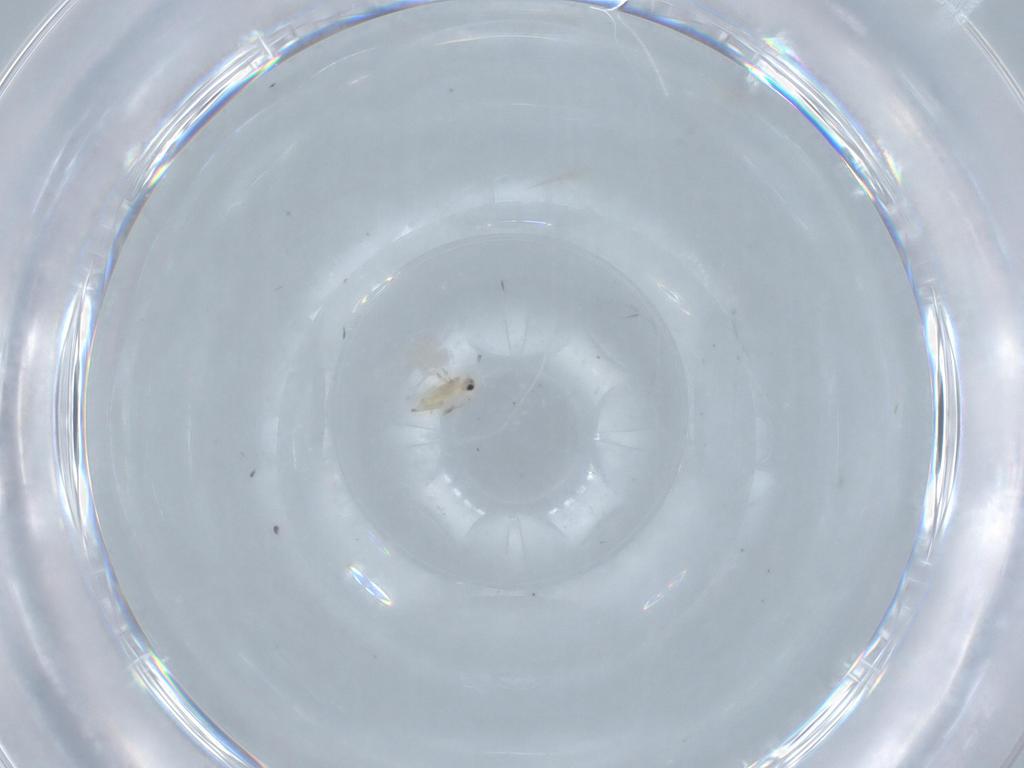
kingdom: Animalia
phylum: Arthropoda
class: Insecta
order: Hymenoptera
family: Mymaridae
